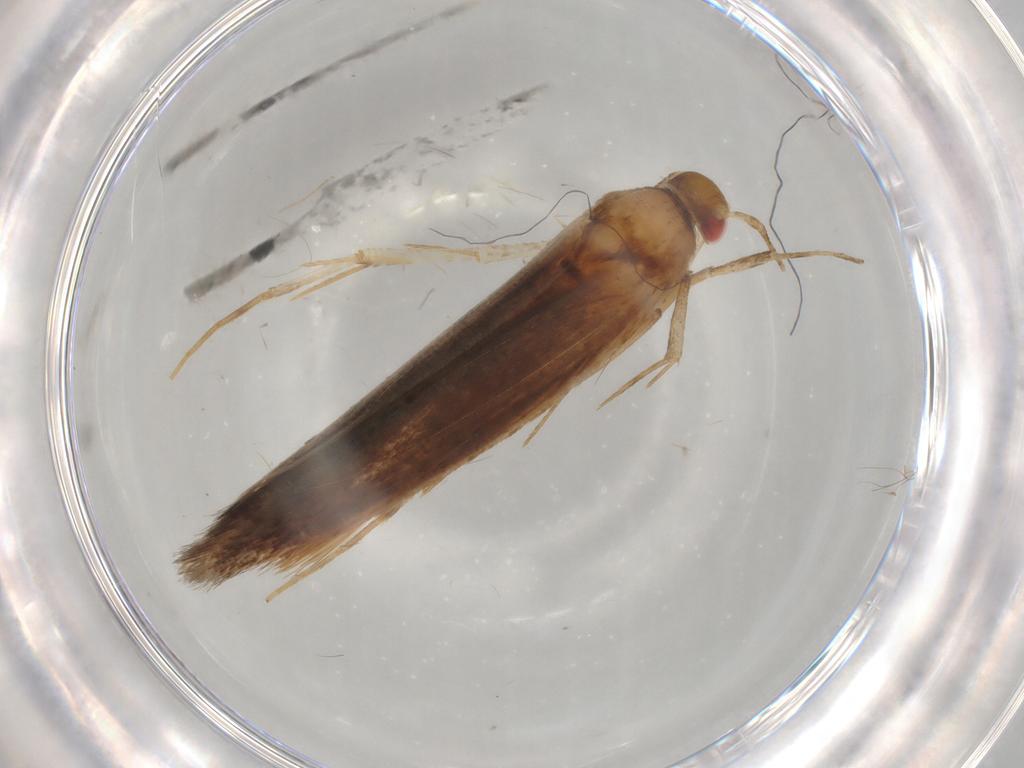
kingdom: Animalia
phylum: Arthropoda
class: Insecta
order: Lepidoptera
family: Cosmopterigidae
